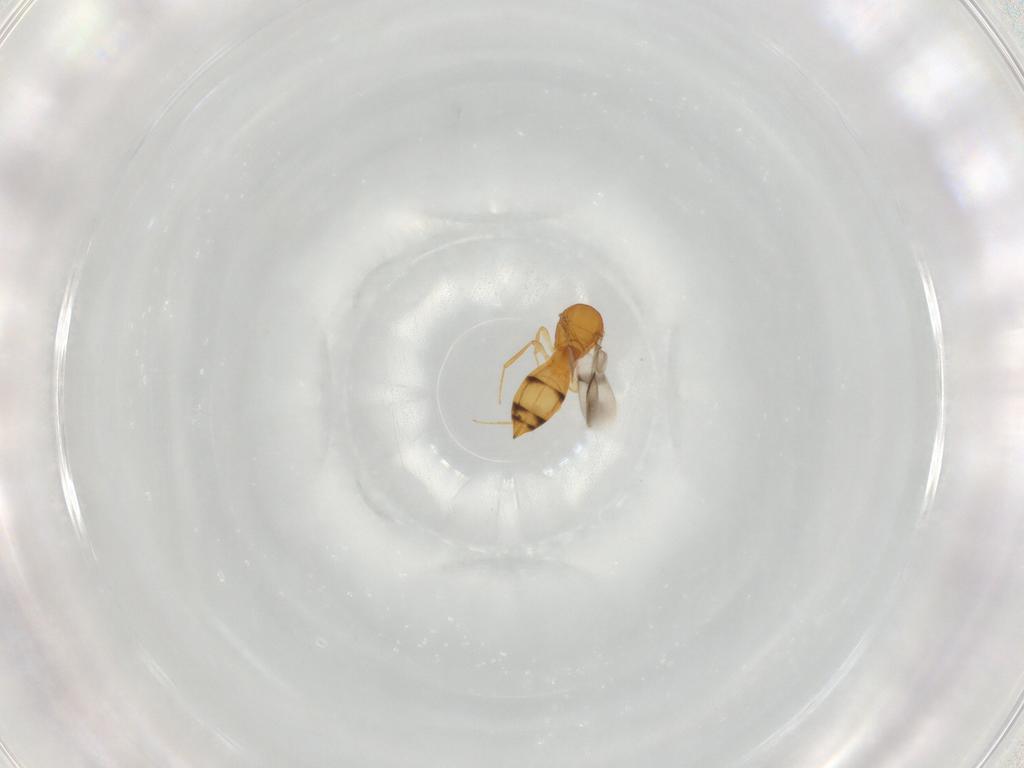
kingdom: Animalia
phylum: Arthropoda
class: Insecta
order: Hymenoptera
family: Scelionidae
